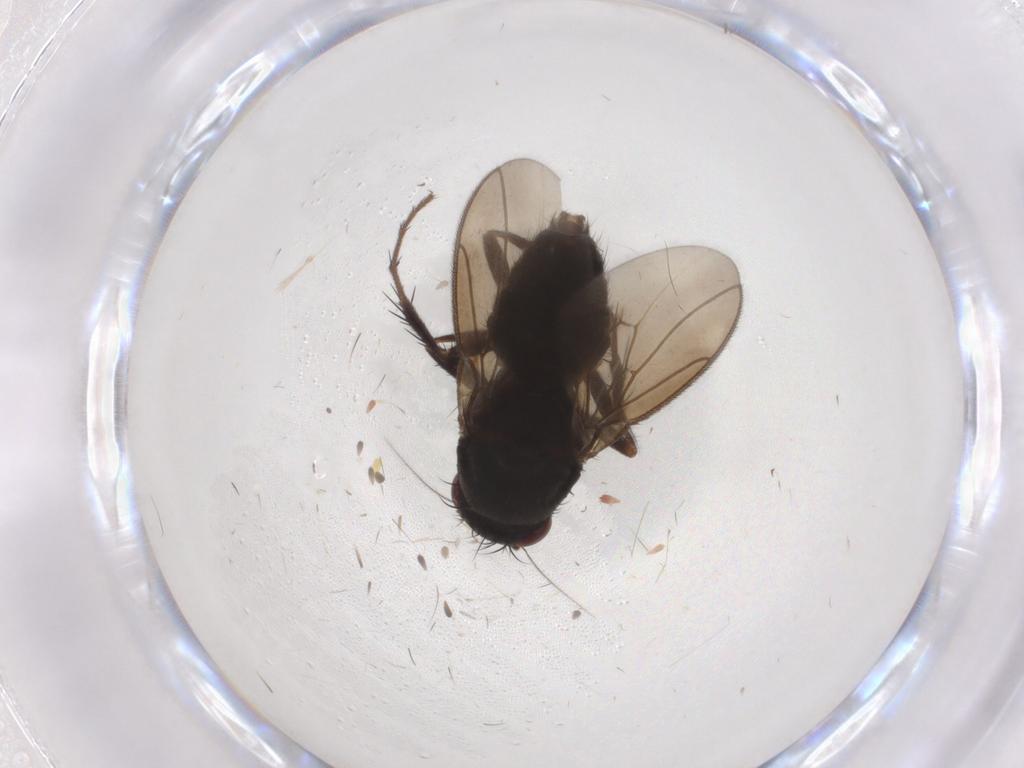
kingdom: Animalia
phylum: Arthropoda
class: Insecta
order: Diptera
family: Sphaeroceridae
